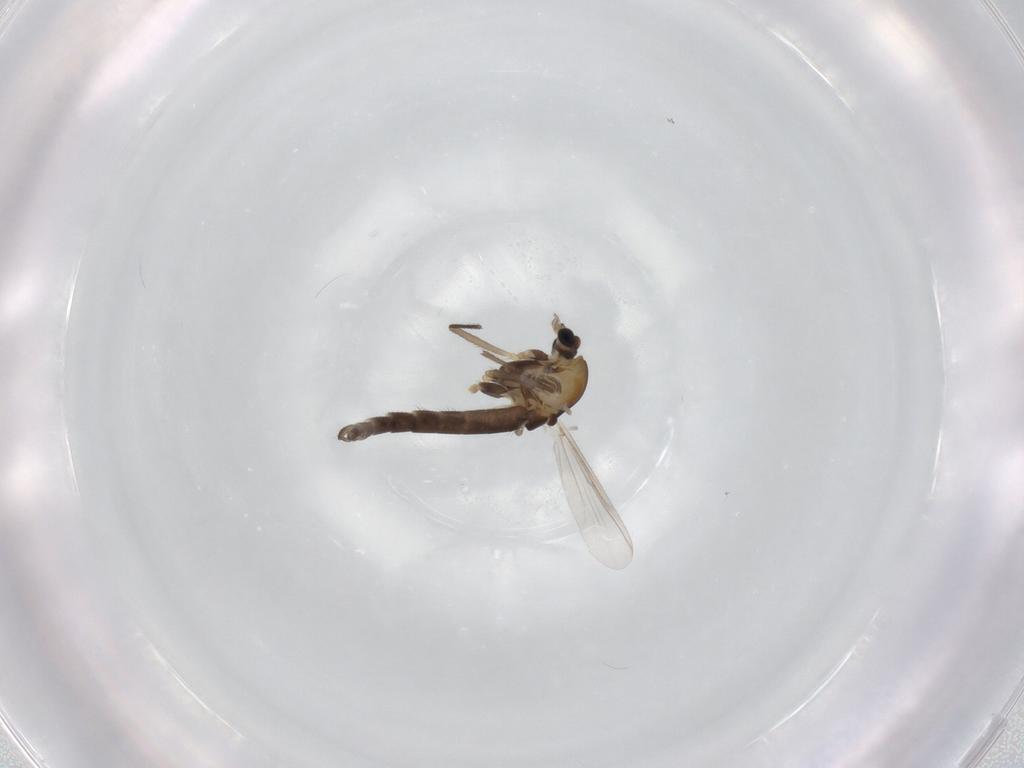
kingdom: Animalia
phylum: Arthropoda
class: Insecta
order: Diptera
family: Chironomidae
